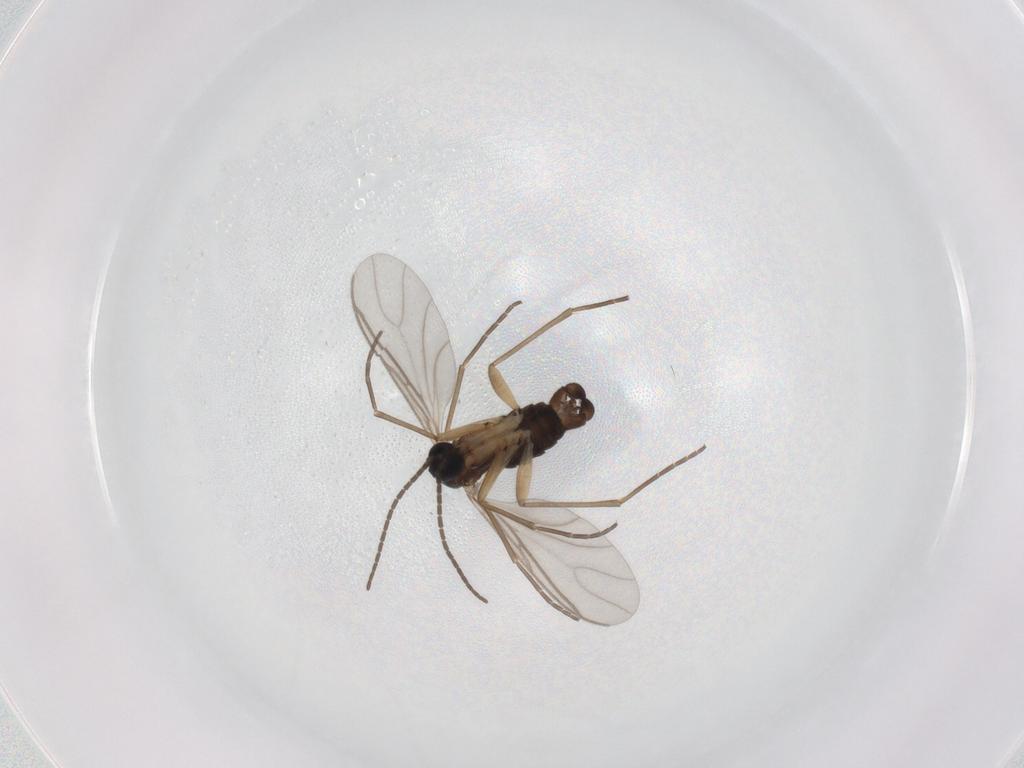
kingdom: Animalia
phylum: Arthropoda
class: Insecta
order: Diptera
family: Sciaridae
